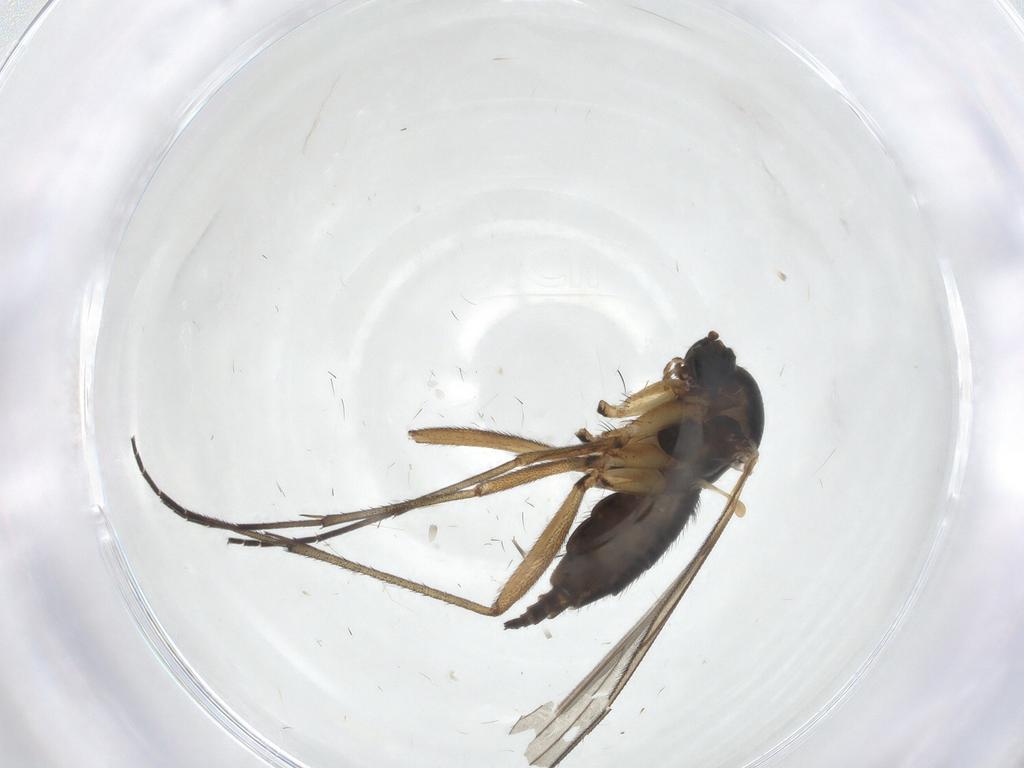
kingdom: Animalia
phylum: Arthropoda
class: Insecta
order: Diptera
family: Sciaridae
